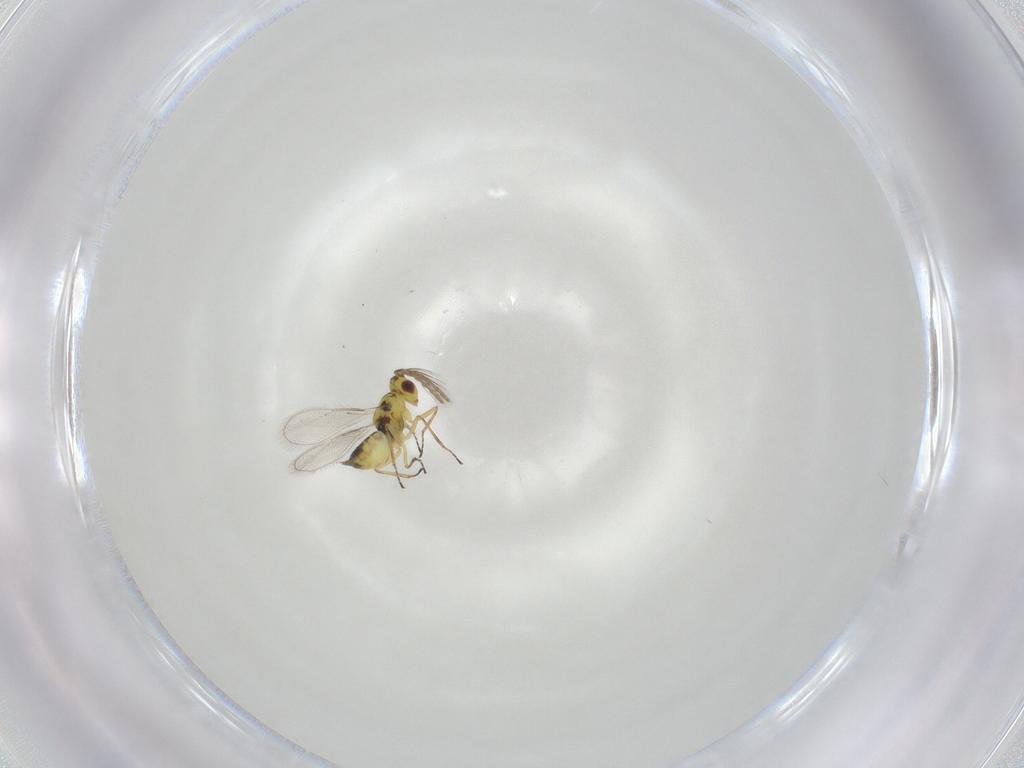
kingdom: Animalia
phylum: Arthropoda
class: Insecta
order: Hymenoptera
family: Eulophidae
